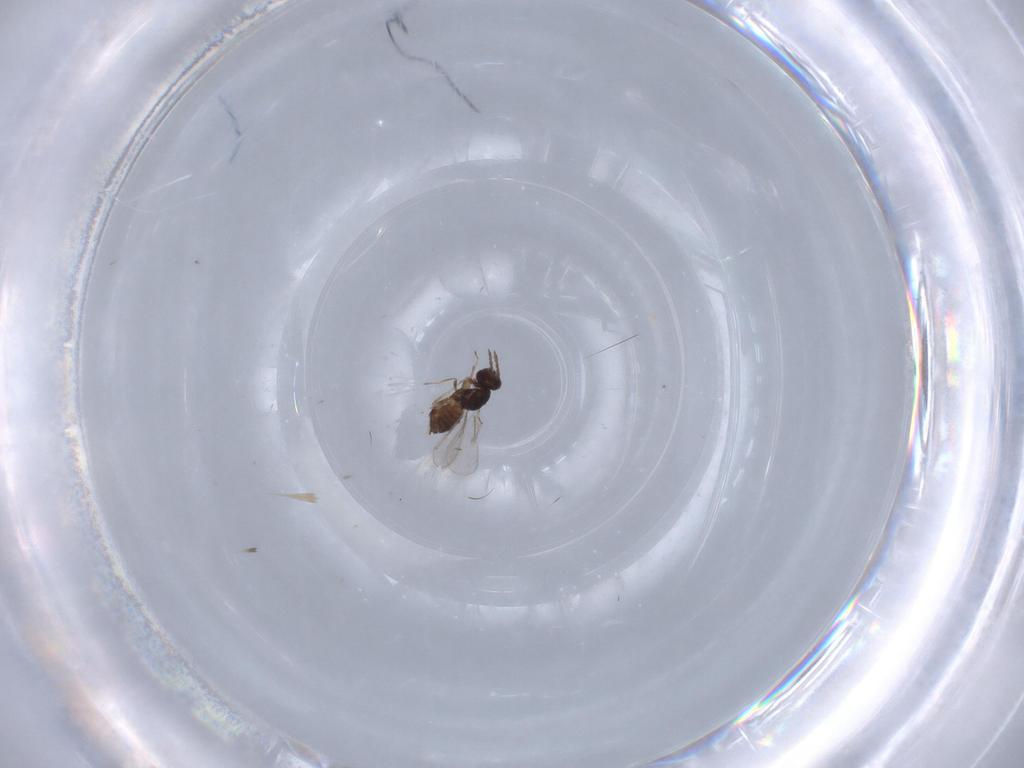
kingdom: Animalia
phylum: Arthropoda
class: Insecta
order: Hymenoptera
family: Eulophidae
